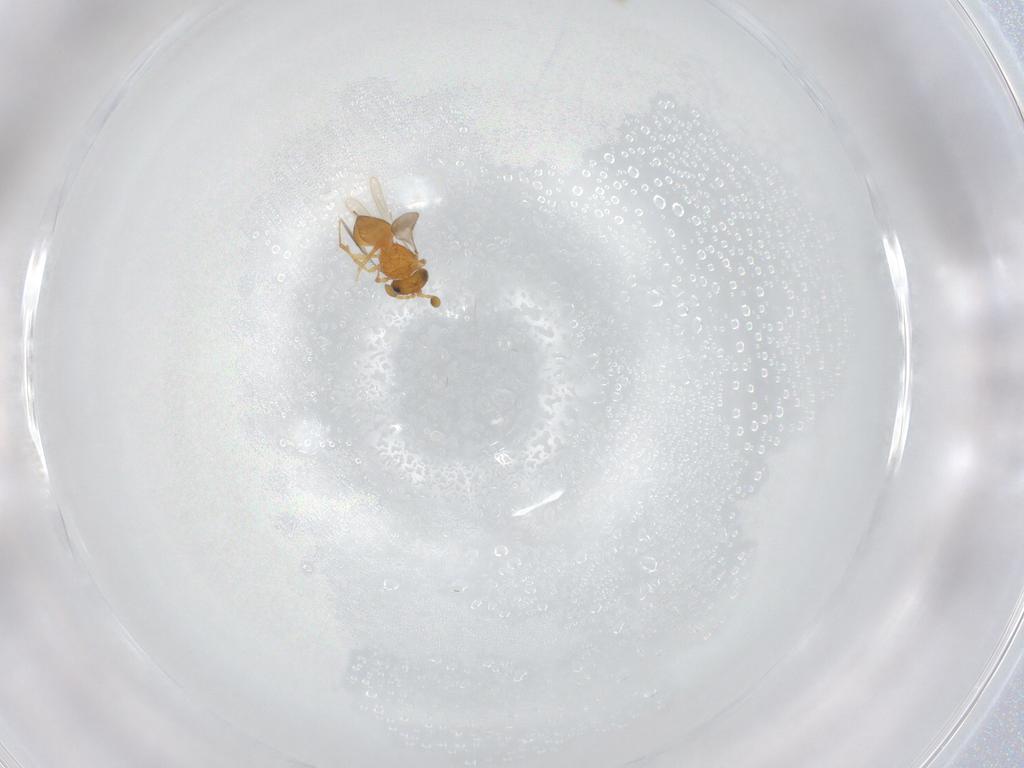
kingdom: Animalia
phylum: Arthropoda
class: Insecta
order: Hymenoptera
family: Scelionidae
